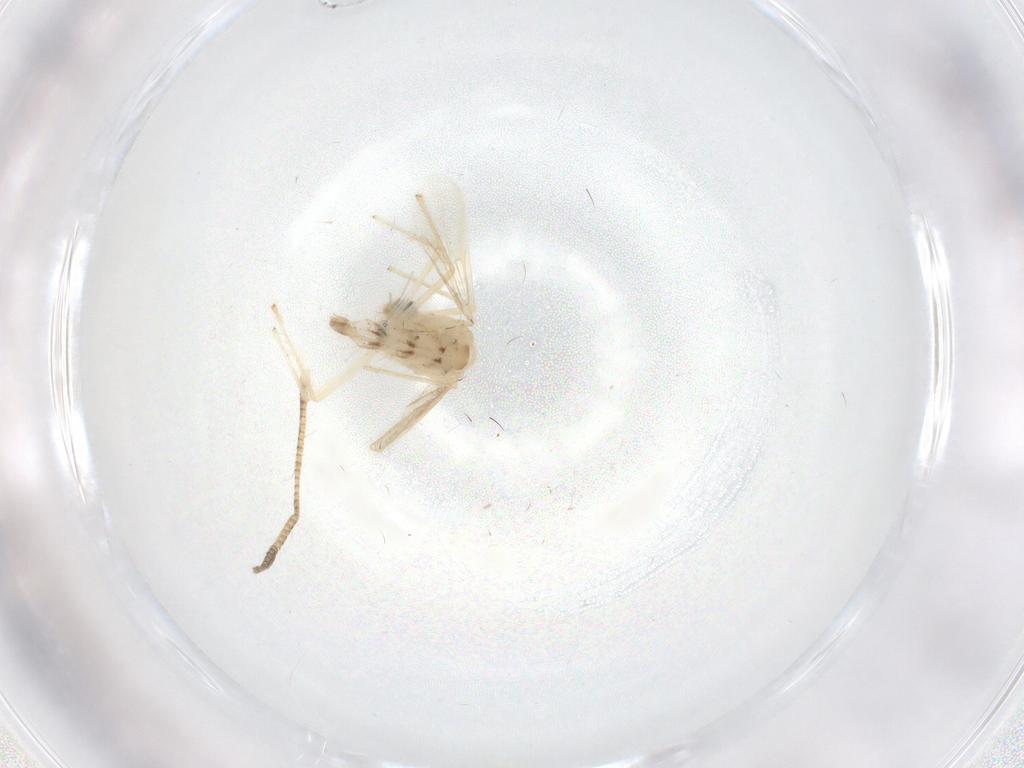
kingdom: Animalia
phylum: Arthropoda
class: Insecta
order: Diptera
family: Chironomidae
